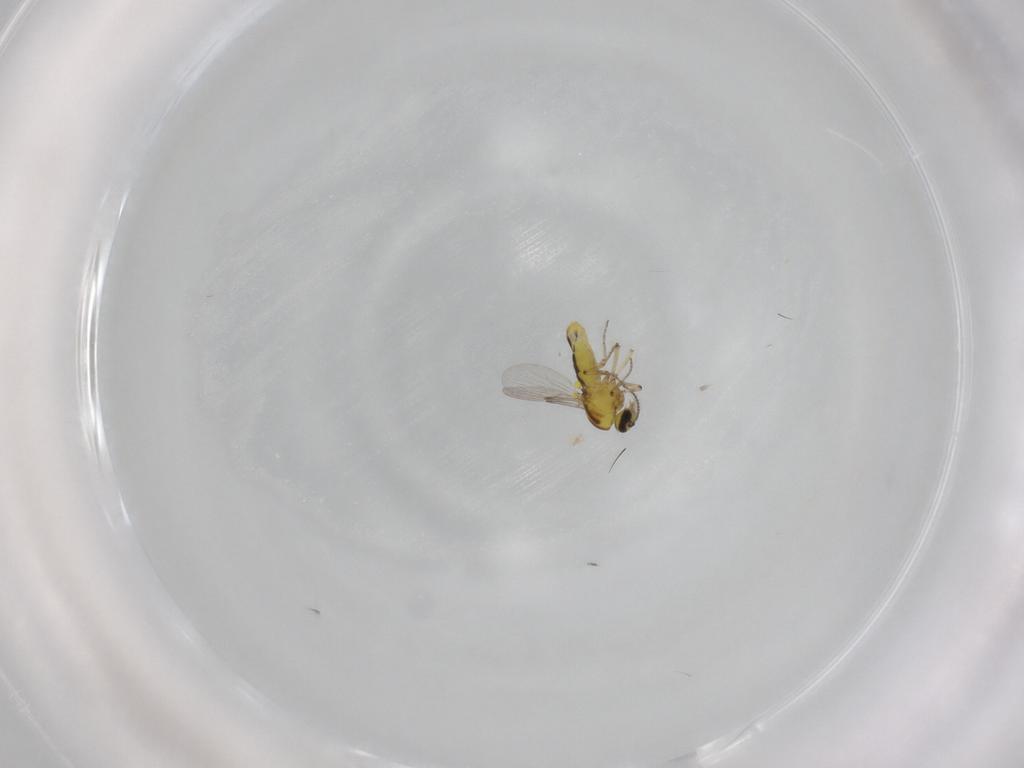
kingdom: Animalia
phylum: Arthropoda
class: Insecta
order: Diptera
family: Ceratopogonidae
